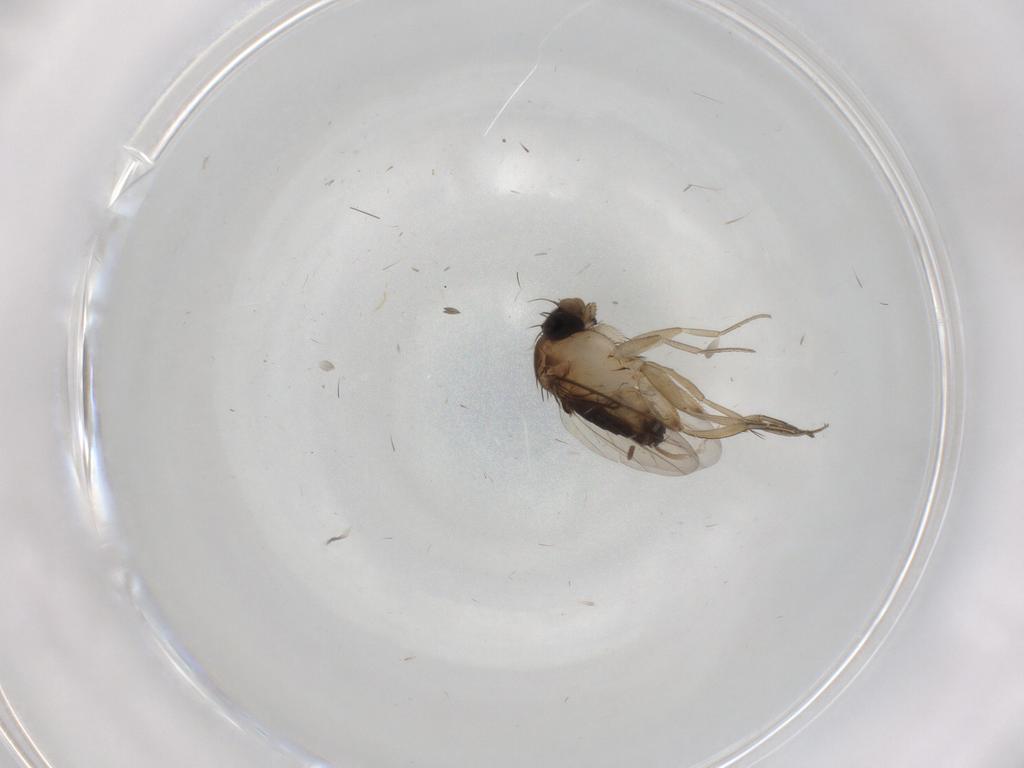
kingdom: Animalia
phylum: Arthropoda
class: Insecta
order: Diptera
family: Phoridae
